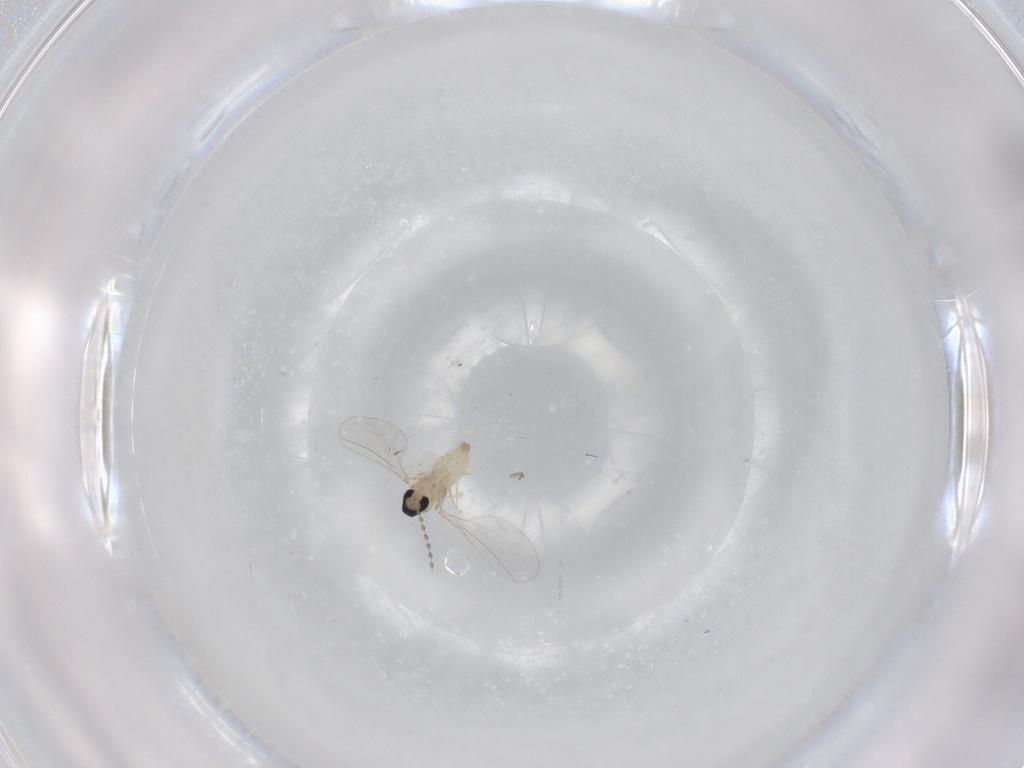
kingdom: Animalia
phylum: Arthropoda
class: Insecta
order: Diptera
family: Cecidomyiidae
